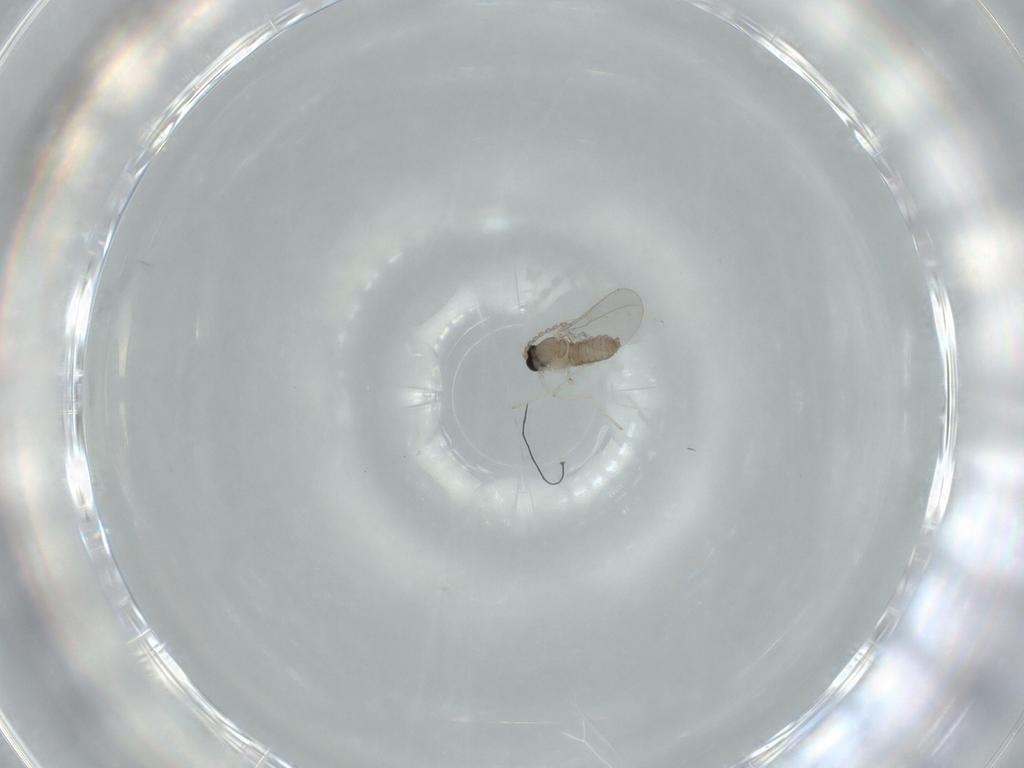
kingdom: Animalia
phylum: Arthropoda
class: Insecta
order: Diptera
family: Cecidomyiidae
